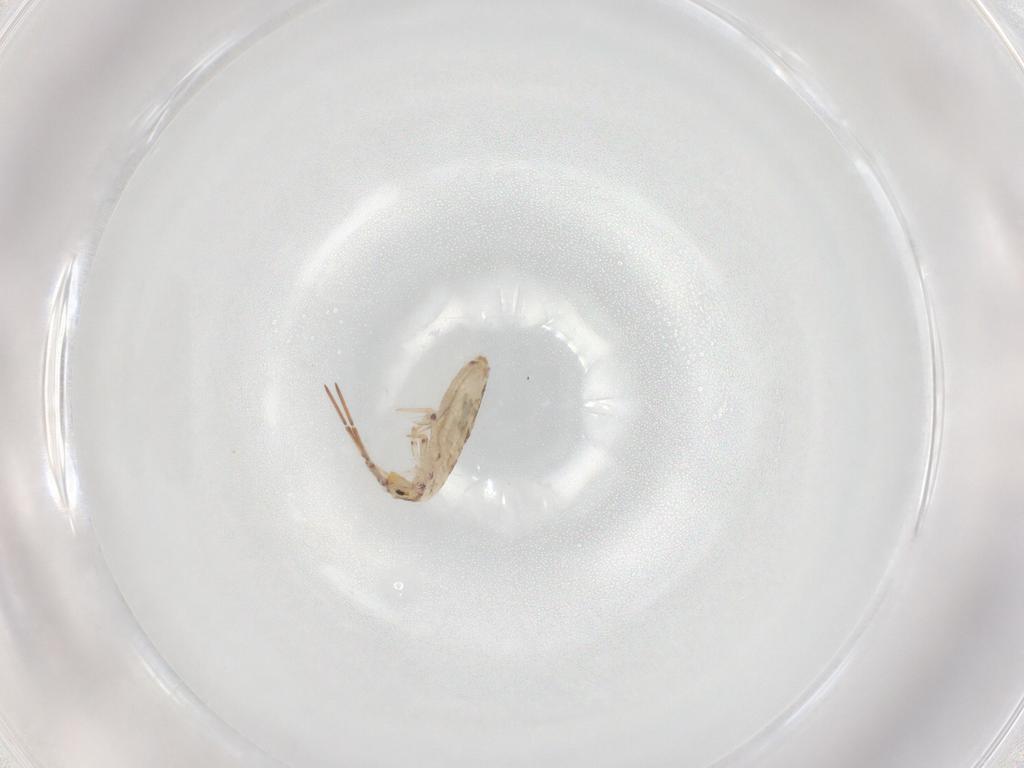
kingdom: Animalia
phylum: Arthropoda
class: Collembola
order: Entomobryomorpha
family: Entomobryidae
